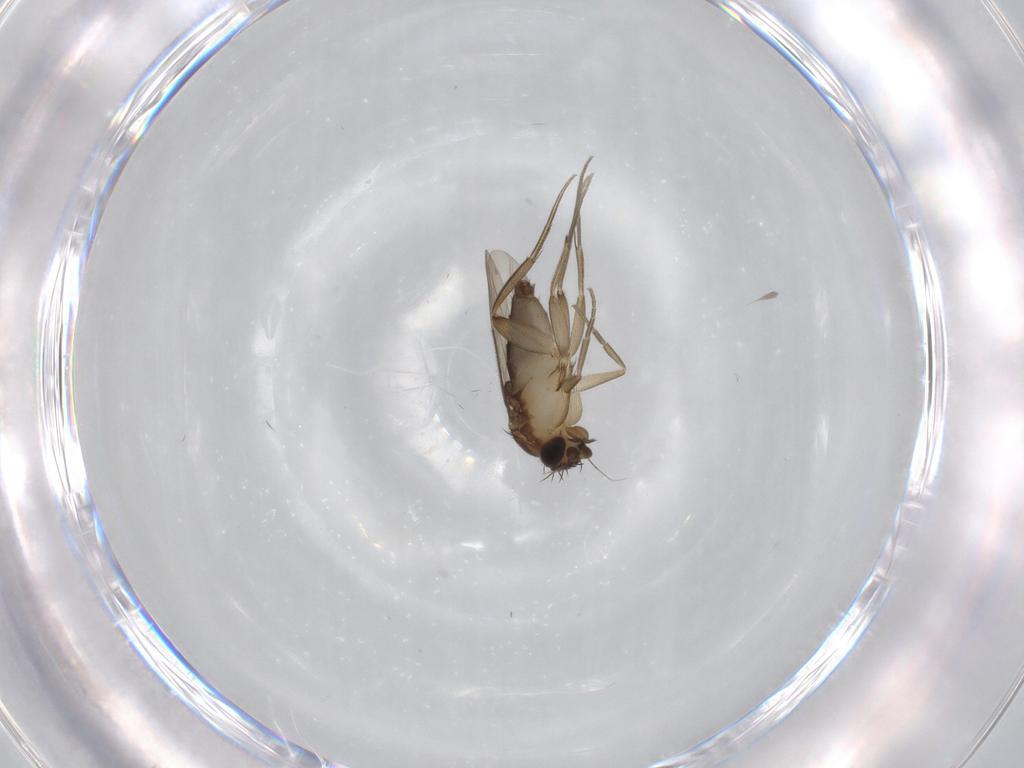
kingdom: Animalia
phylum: Arthropoda
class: Insecta
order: Diptera
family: Phoridae
